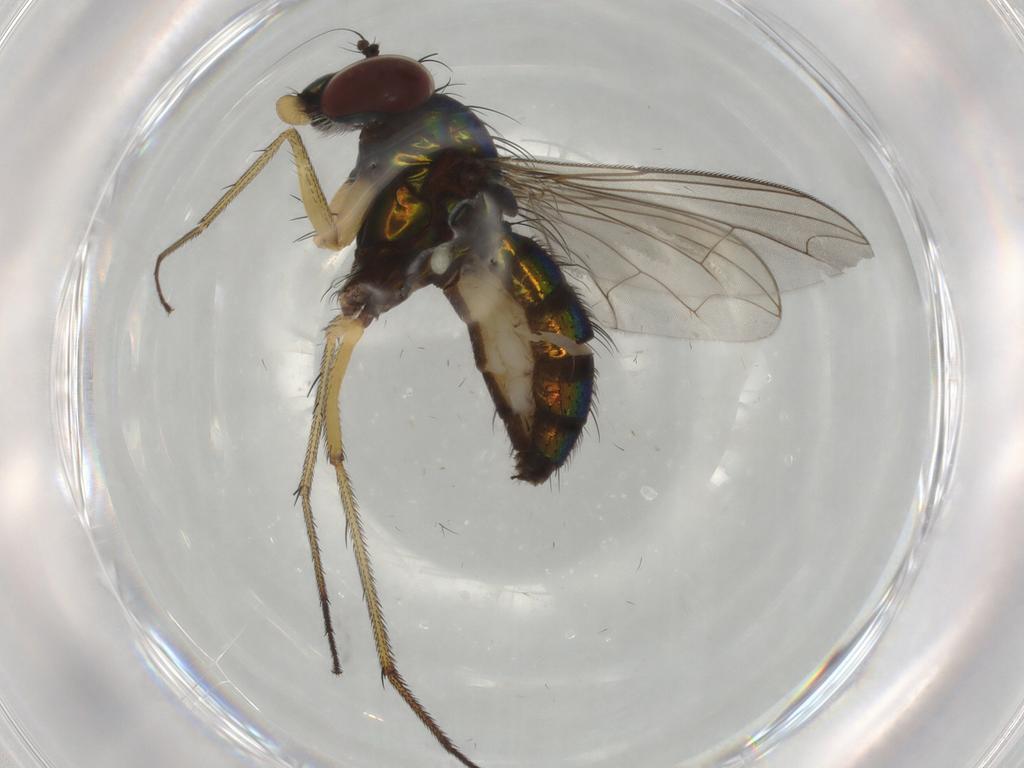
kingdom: Animalia
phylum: Arthropoda
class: Insecta
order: Diptera
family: Dolichopodidae
